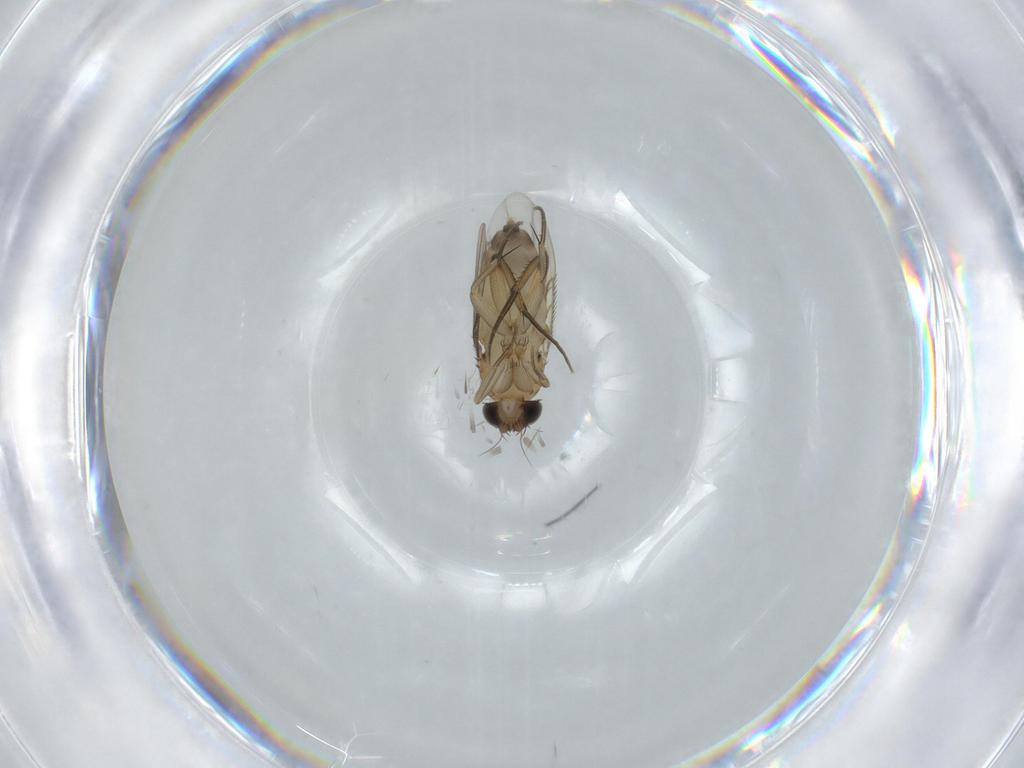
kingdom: Animalia
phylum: Arthropoda
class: Insecta
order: Diptera
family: Phoridae
